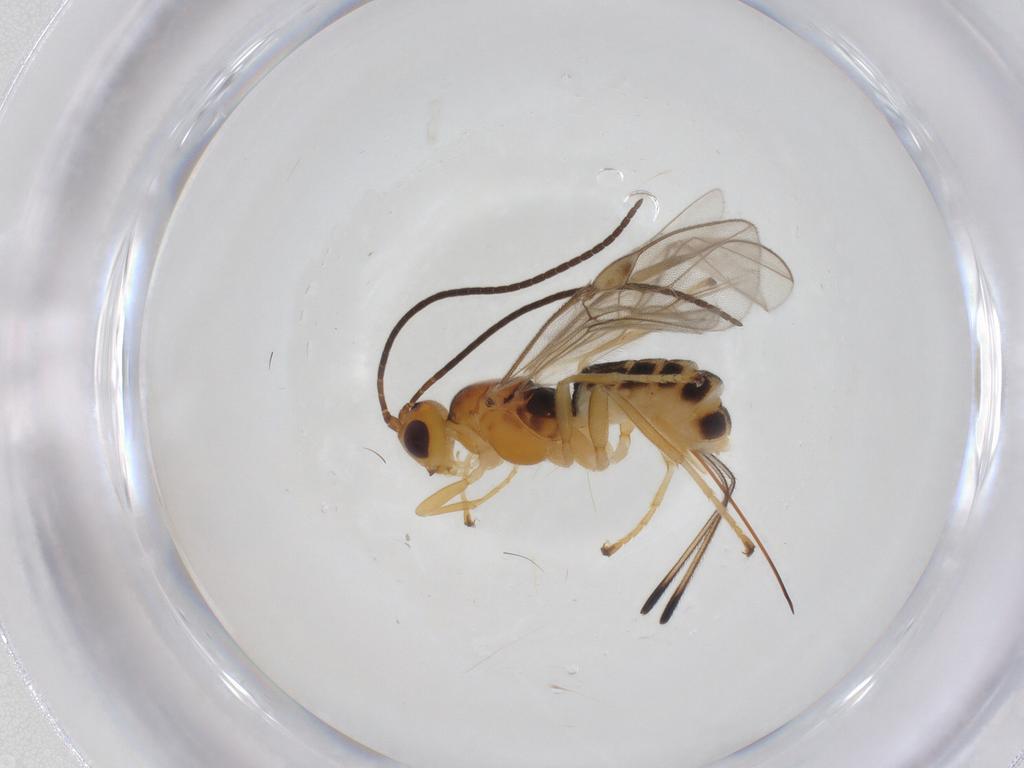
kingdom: Animalia
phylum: Arthropoda
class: Insecta
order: Hymenoptera
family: Braconidae
